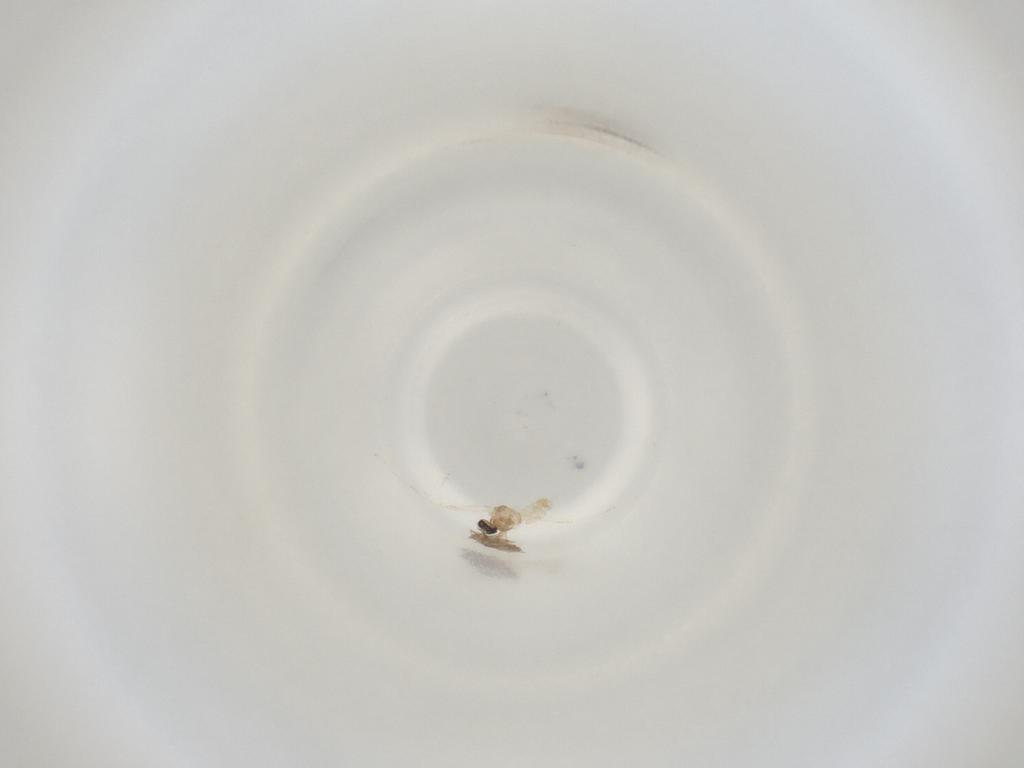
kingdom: Animalia
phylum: Arthropoda
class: Insecta
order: Diptera
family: Cecidomyiidae
